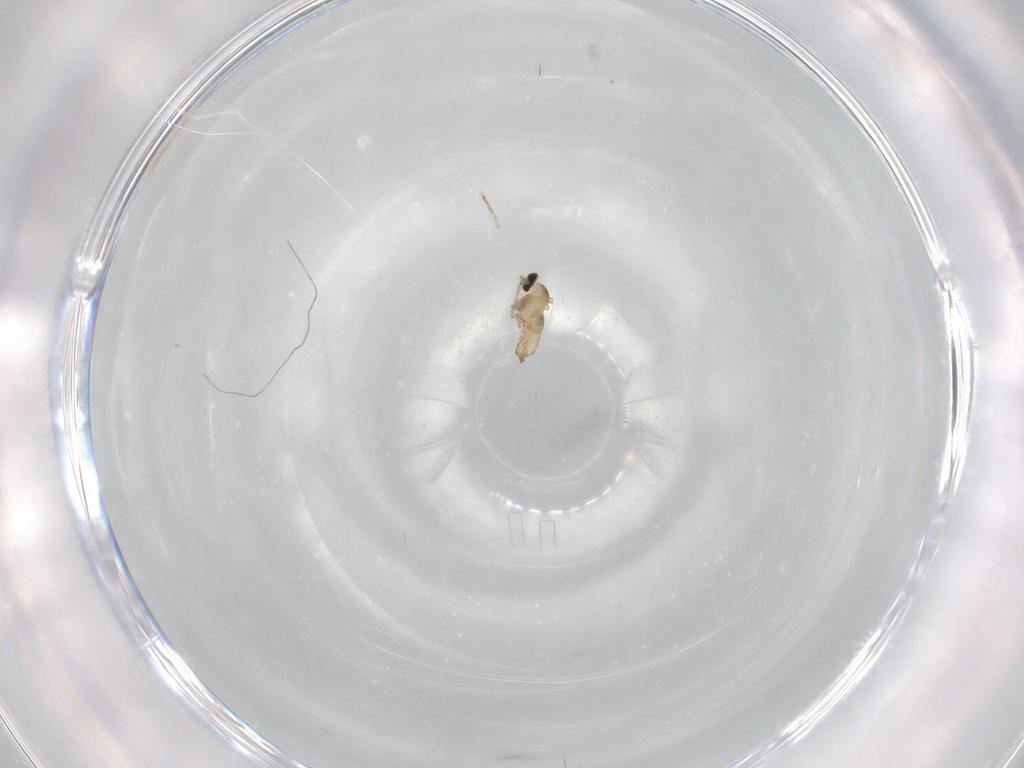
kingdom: Animalia
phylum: Arthropoda
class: Insecta
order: Diptera
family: Cecidomyiidae
